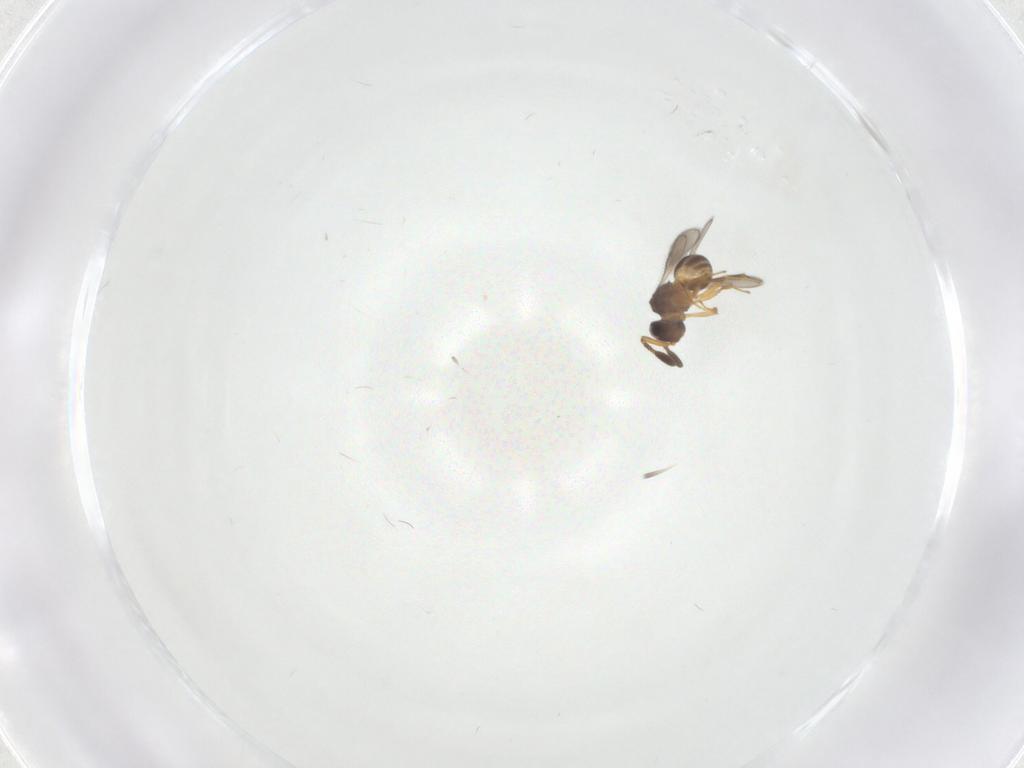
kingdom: Animalia
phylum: Arthropoda
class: Insecta
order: Hymenoptera
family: Scelionidae
